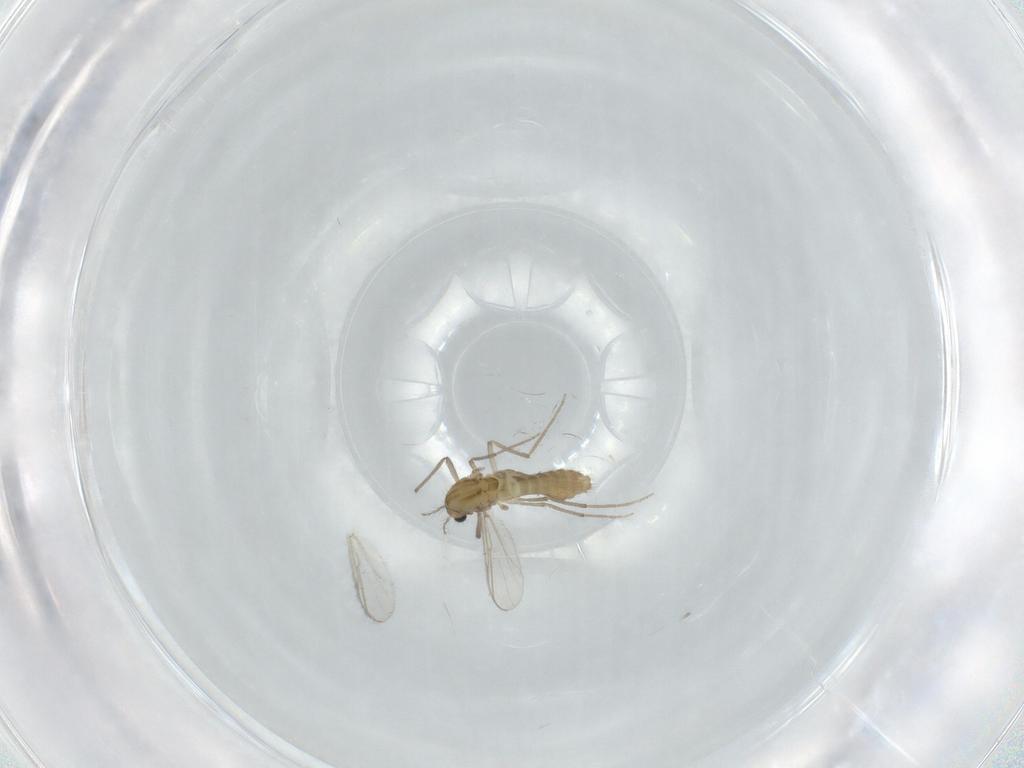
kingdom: Animalia
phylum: Arthropoda
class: Insecta
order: Diptera
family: Chironomidae
